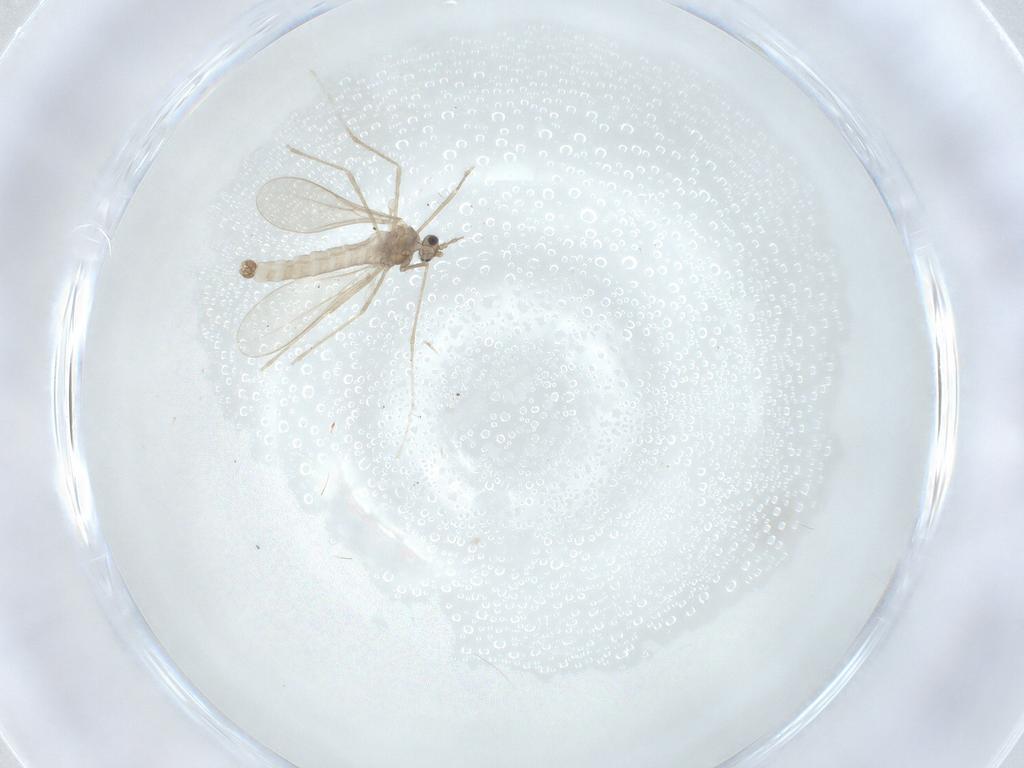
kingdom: Animalia
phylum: Arthropoda
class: Insecta
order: Diptera
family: Cecidomyiidae
